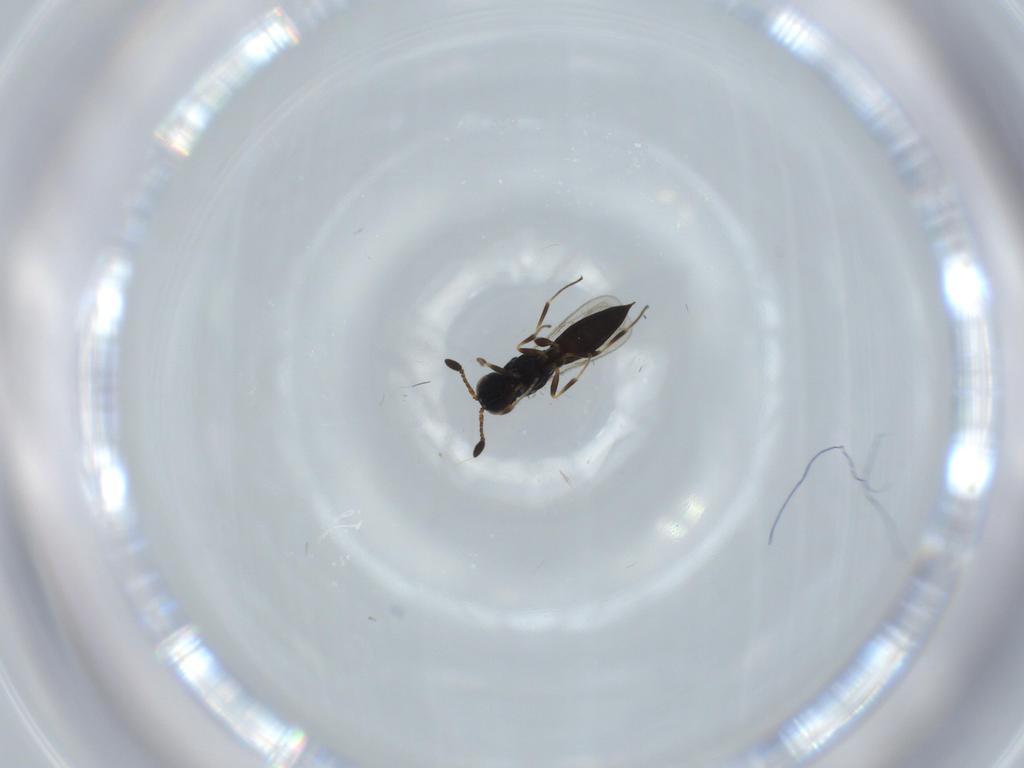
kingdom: Animalia
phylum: Arthropoda
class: Insecta
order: Hymenoptera
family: Scelionidae
